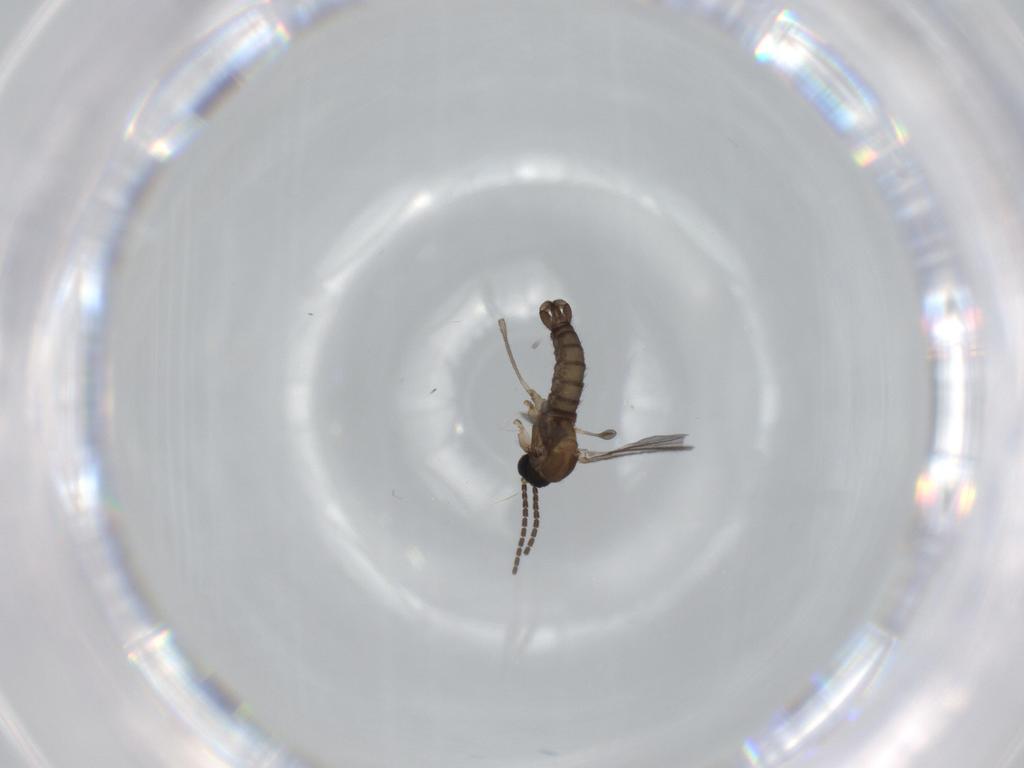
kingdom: Animalia
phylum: Arthropoda
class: Insecta
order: Diptera
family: Sciaridae
